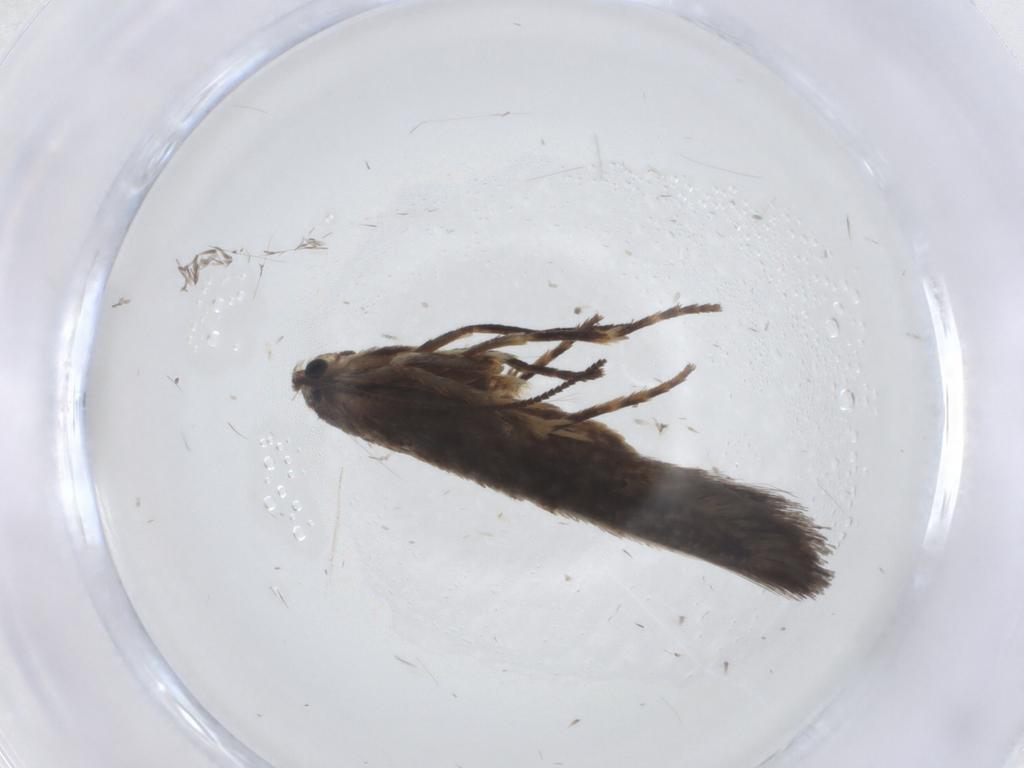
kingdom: Animalia
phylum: Arthropoda
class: Insecta
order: Lepidoptera
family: Nepticulidae
